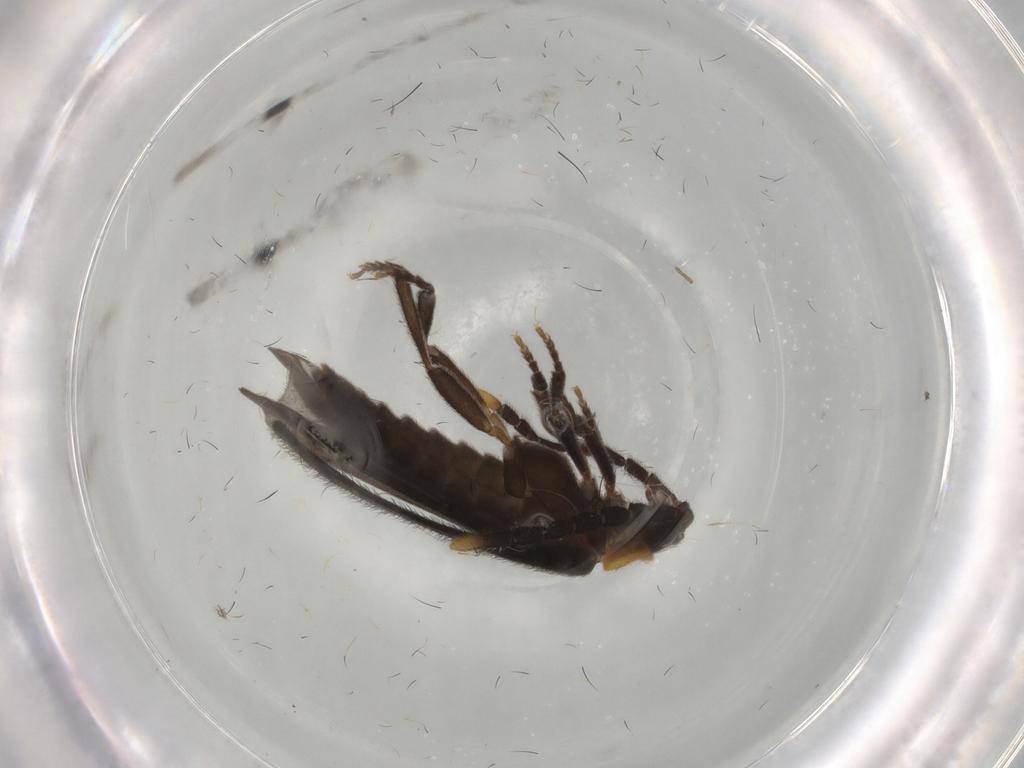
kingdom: Animalia
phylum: Arthropoda
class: Insecta
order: Coleoptera
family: Lycidae
